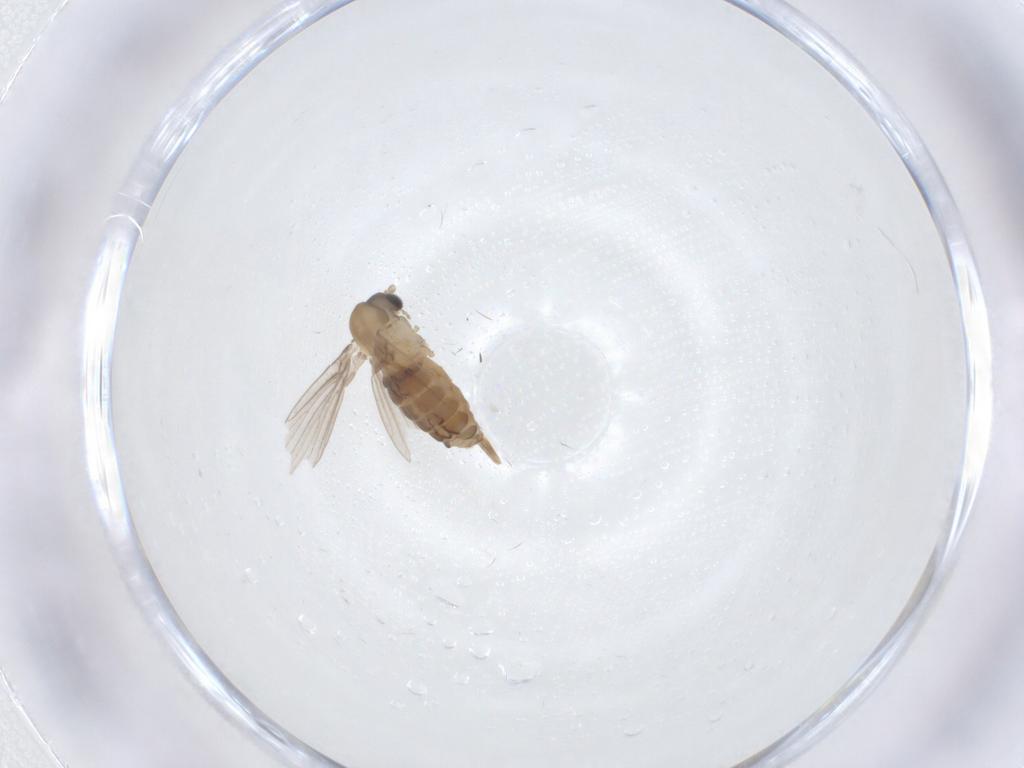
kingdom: Animalia
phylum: Arthropoda
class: Insecta
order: Diptera
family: Psychodidae
